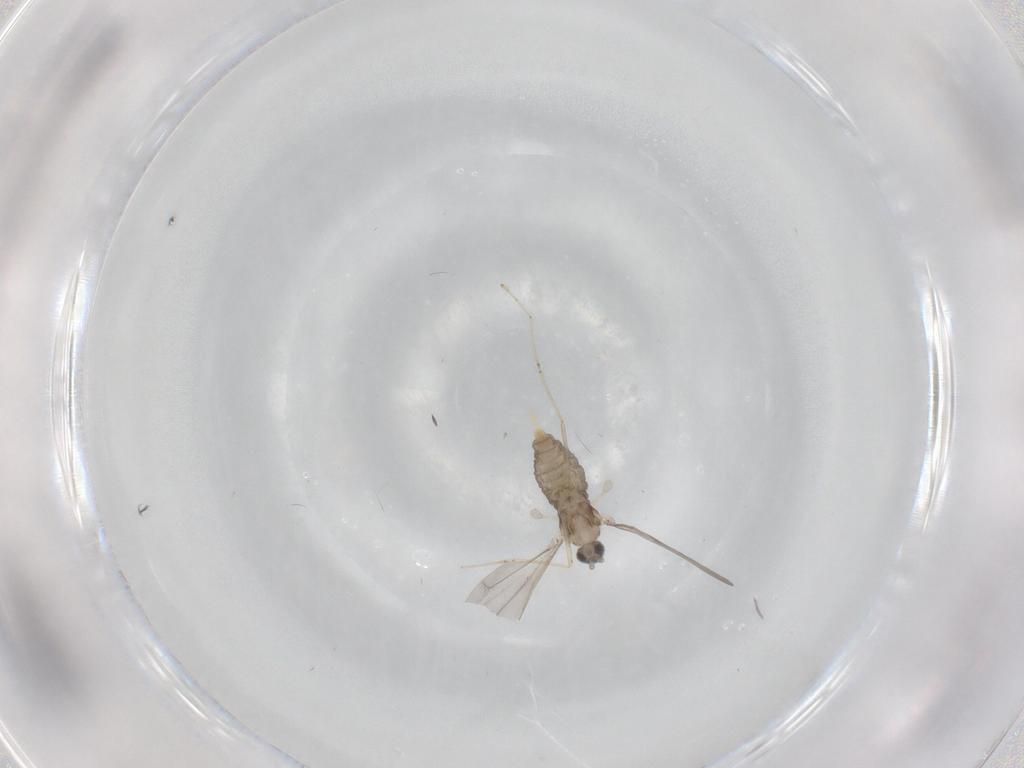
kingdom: Animalia
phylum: Arthropoda
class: Insecta
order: Diptera
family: Cecidomyiidae
